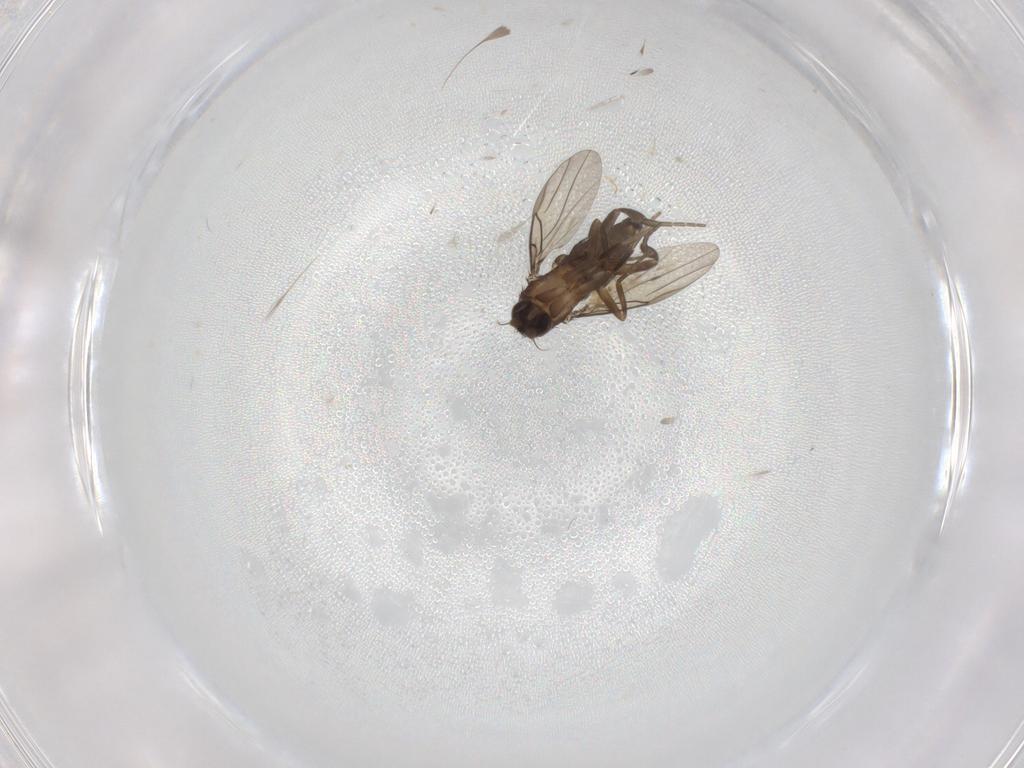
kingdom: Animalia
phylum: Arthropoda
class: Insecta
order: Diptera
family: Phoridae
